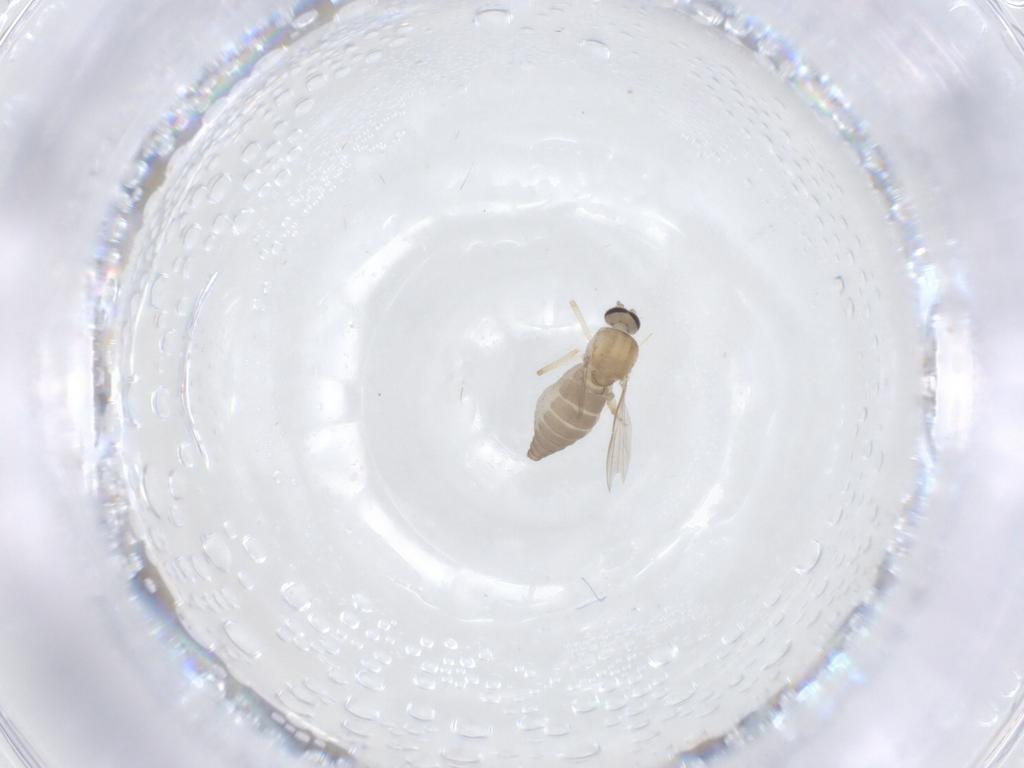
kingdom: Animalia
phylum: Arthropoda
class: Insecta
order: Diptera
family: Ceratopogonidae
